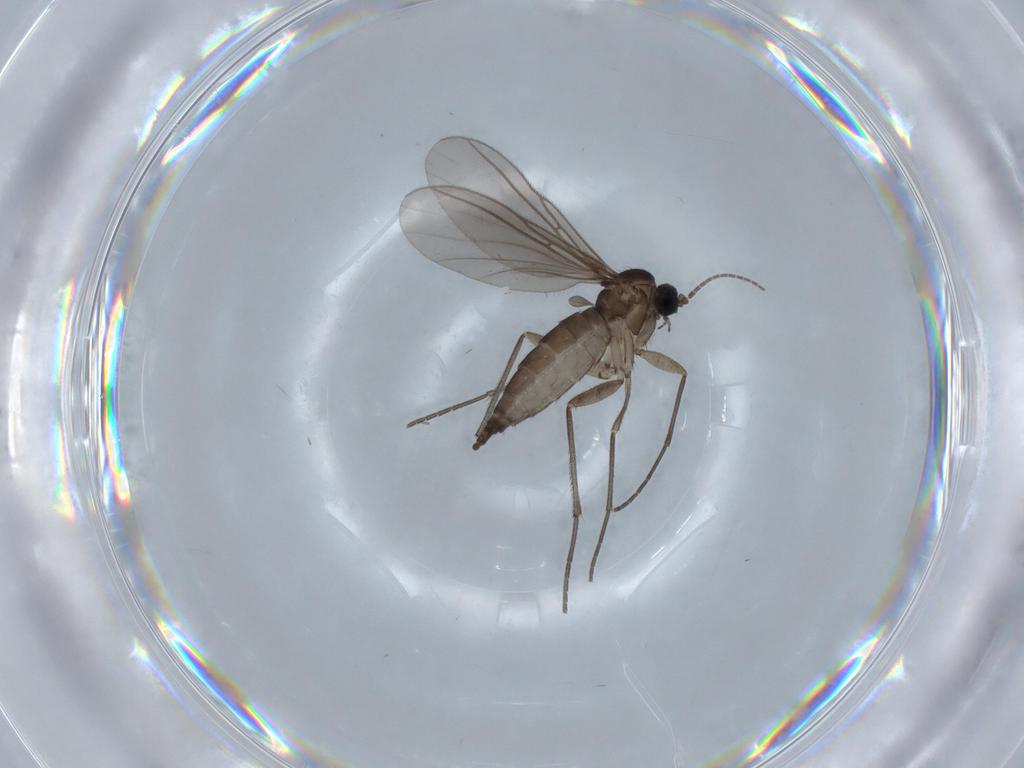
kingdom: Animalia
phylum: Arthropoda
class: Insecta
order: Diptera
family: Sciaridae
